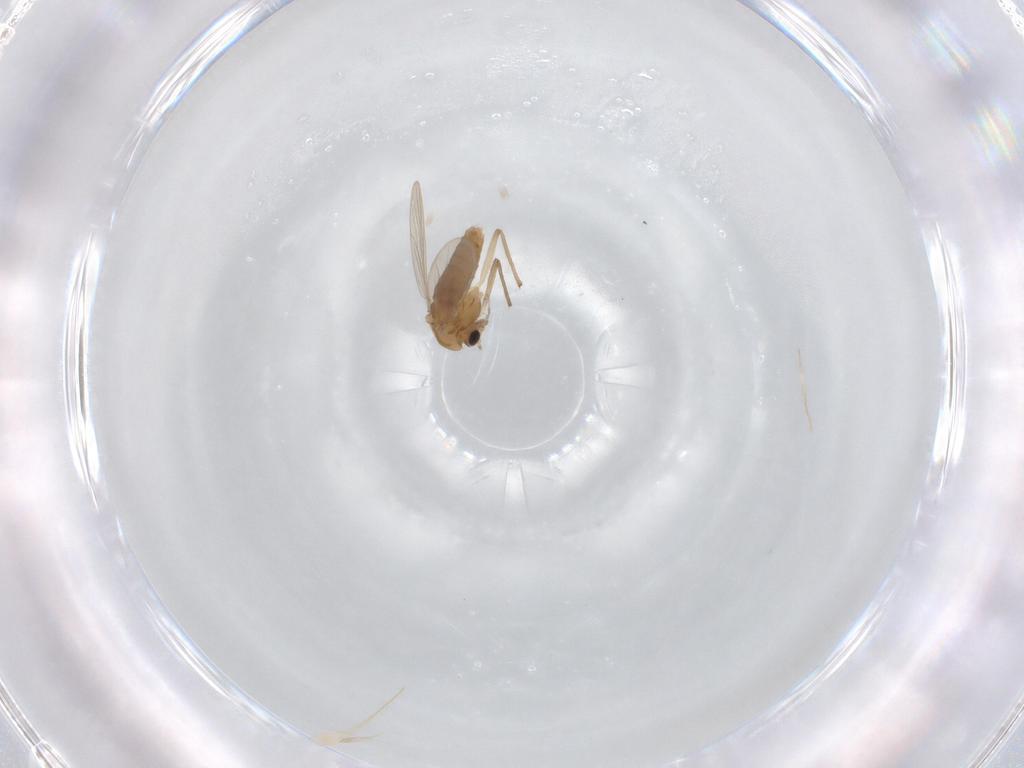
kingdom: Animalia
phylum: Arthropoda
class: Insecta
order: Diptera
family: Chironomidae
